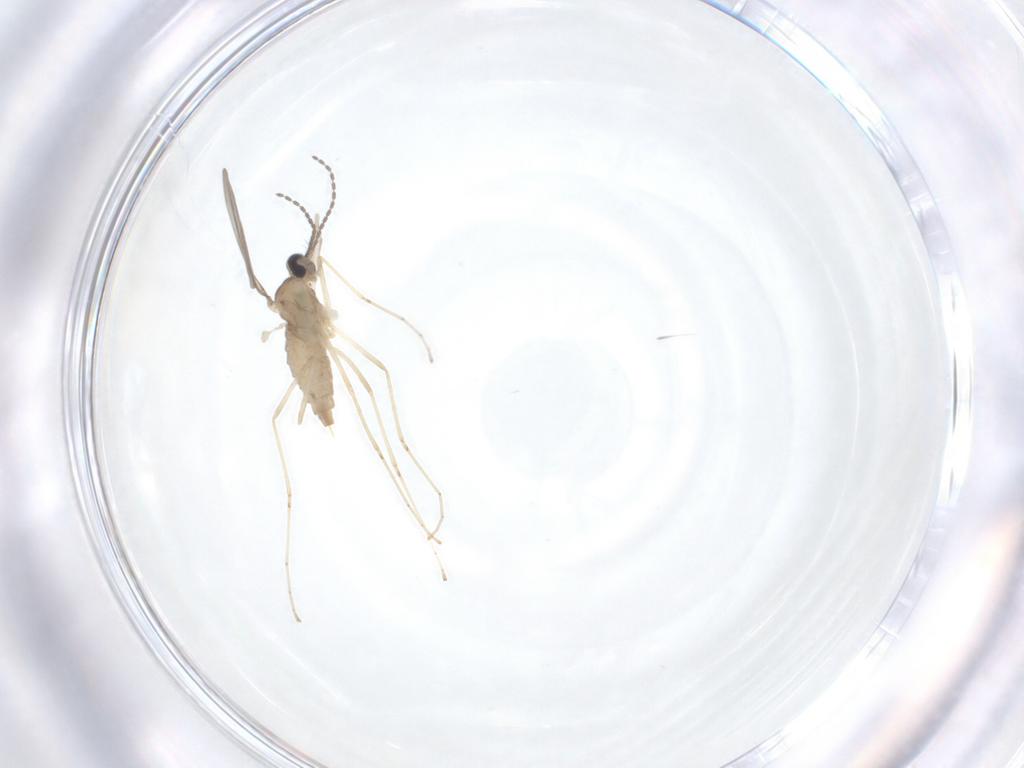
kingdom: Animalia
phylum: Arthropoda
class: Insecta
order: Diptera
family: Cecidomyiidae
